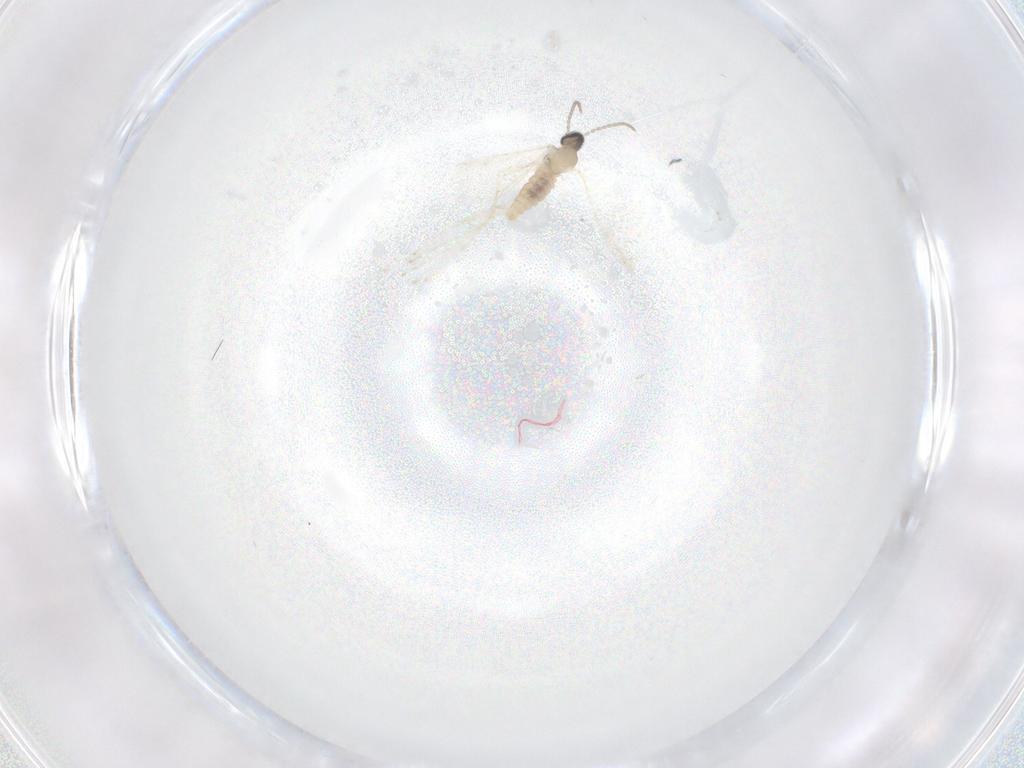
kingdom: Animalia
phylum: Arthropoda
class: Insecta
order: Diptera
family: Cecidomyiidae
